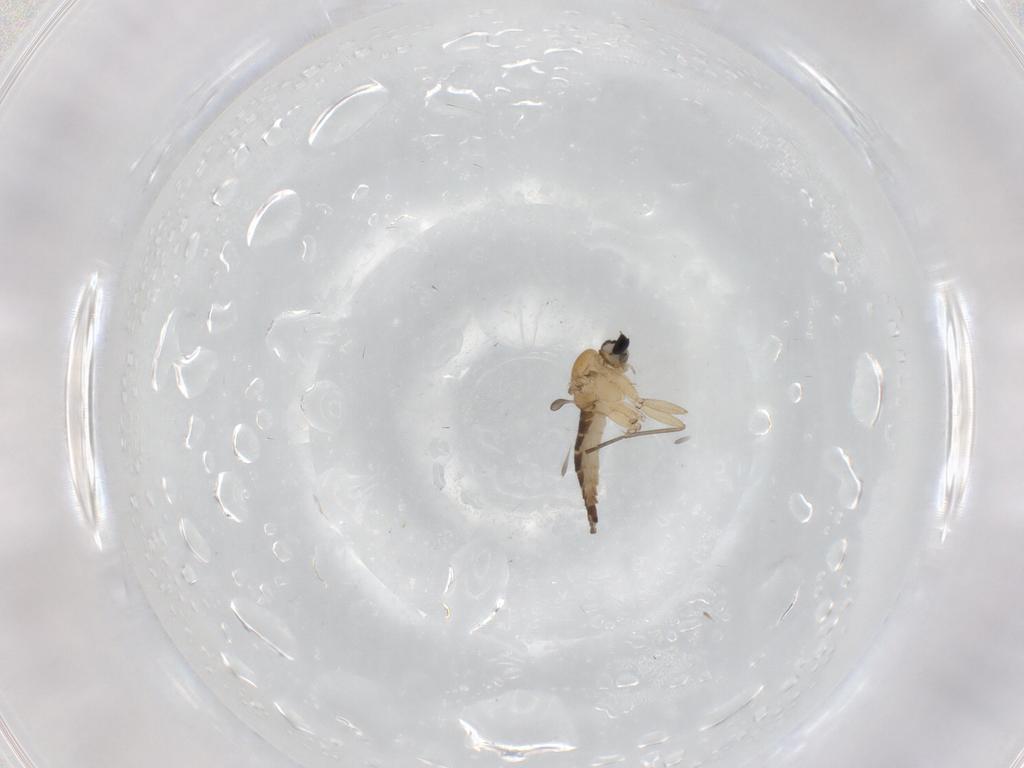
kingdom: Animalia
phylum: Arthropoda
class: Insecta
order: Diptera
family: Sciaridae
